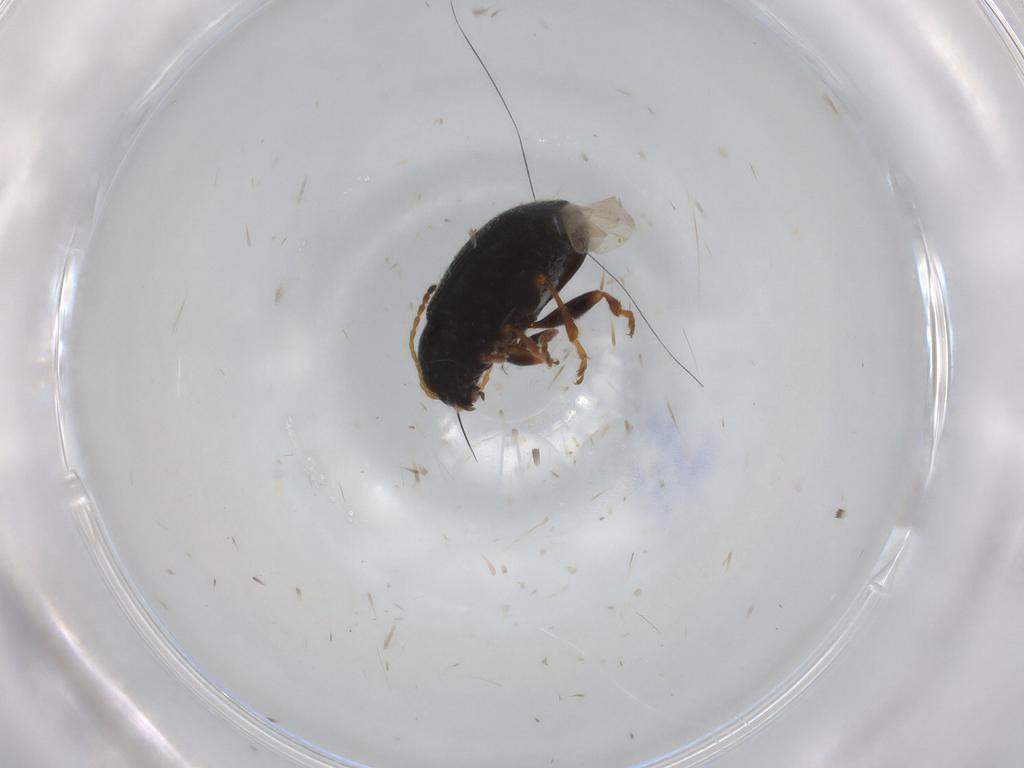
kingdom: Animalia
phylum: Arthropoda
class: Insecta
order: Coleoptera
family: Chrysomelidae
